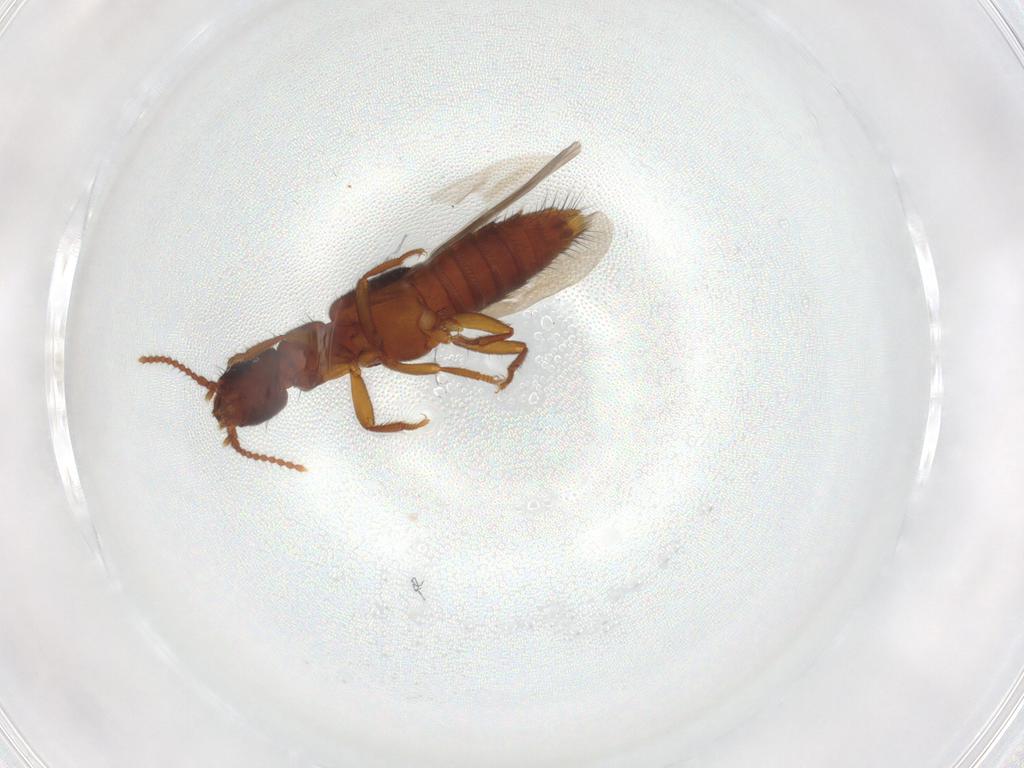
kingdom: Animalia
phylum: Arthropoda
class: Insecta
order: Coleoptera
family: Staphylinidae
